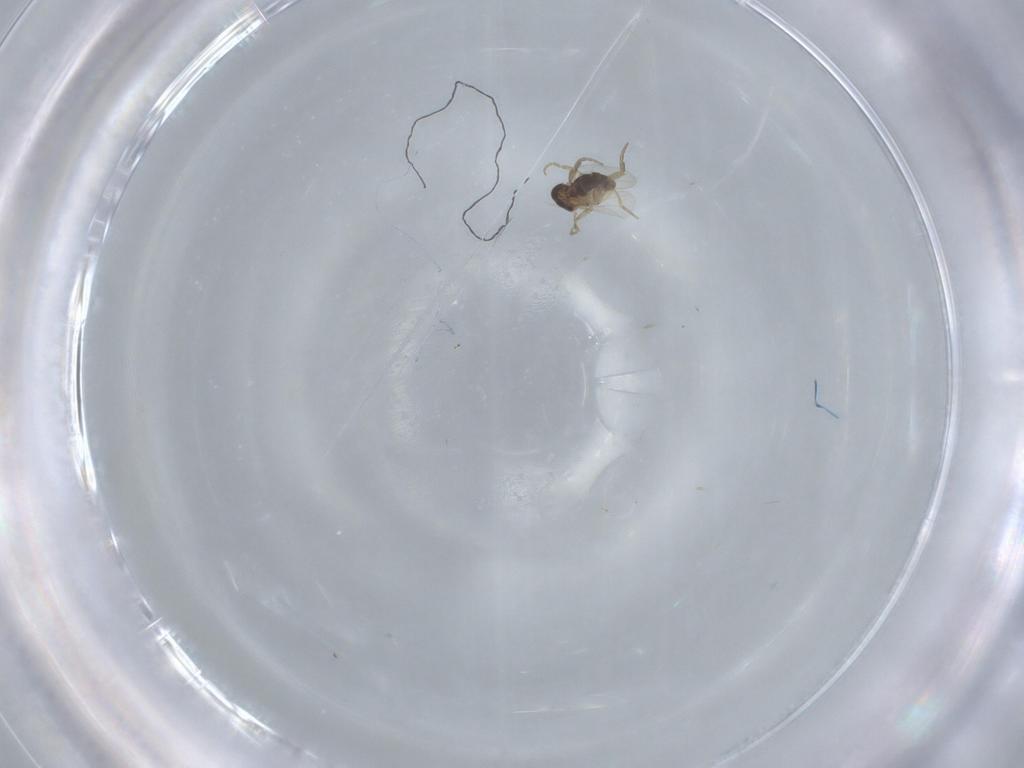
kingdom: Animalia
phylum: Arthropoda
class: Insecta
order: Diptera
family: Phoridae
